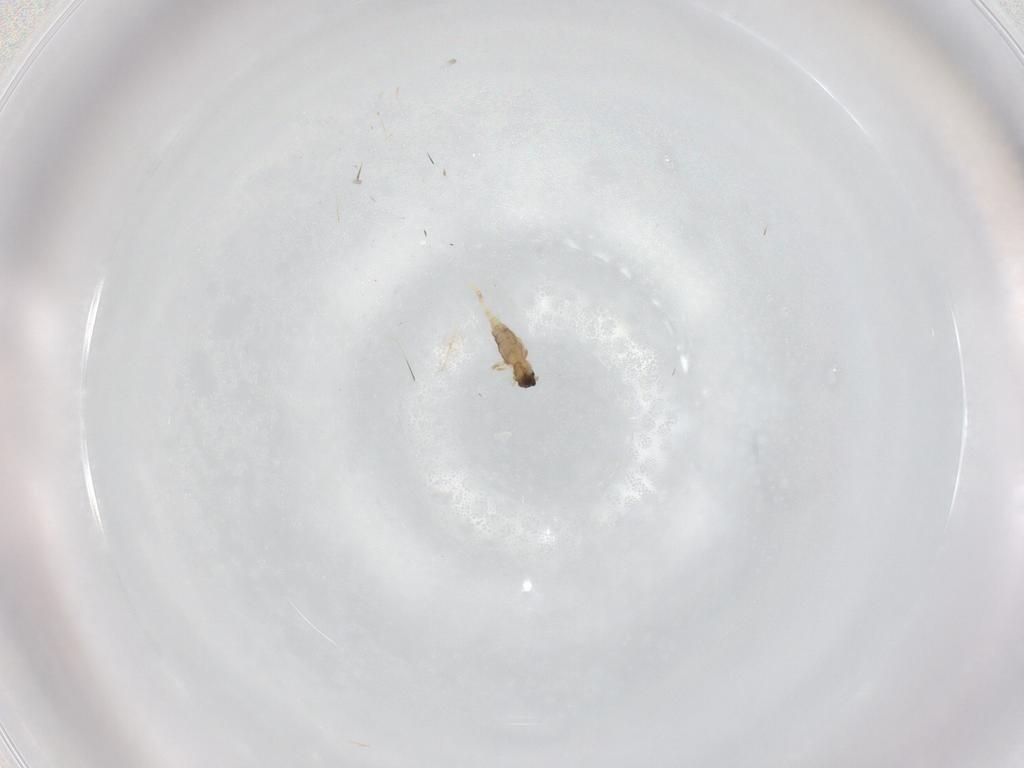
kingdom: Animalia
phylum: Arthropoda
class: Insecta
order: Diptera
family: Cecidomyiidae
